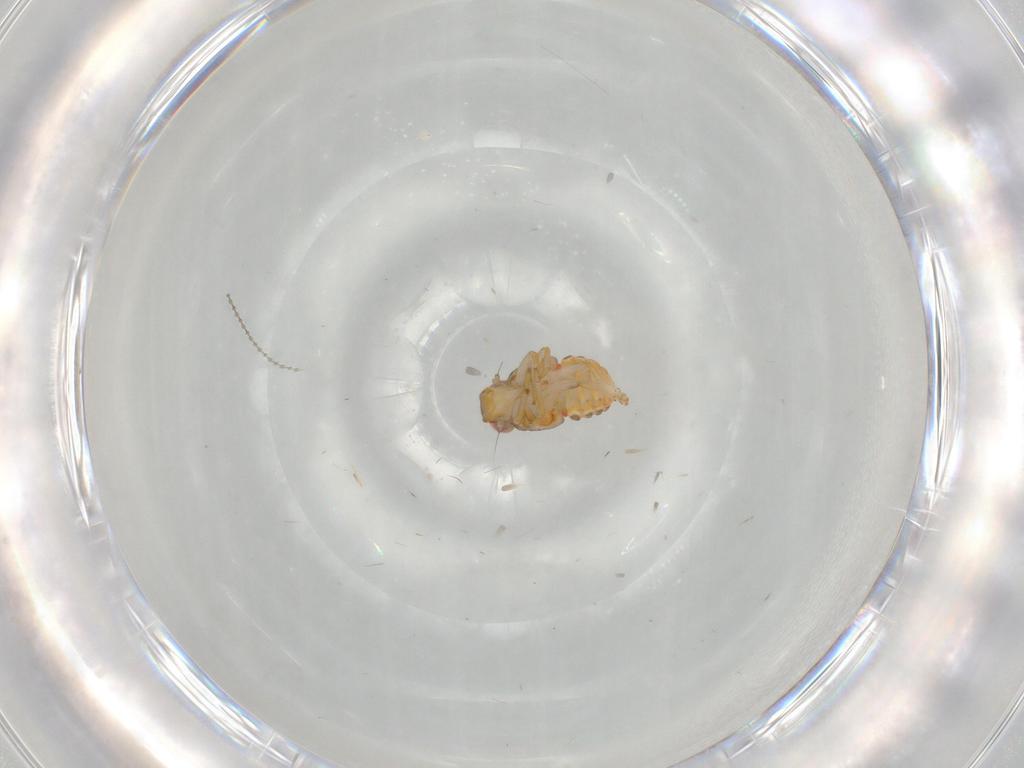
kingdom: Animalia
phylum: Arthropoda
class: Insecta
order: Hemiptera
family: Issidae
